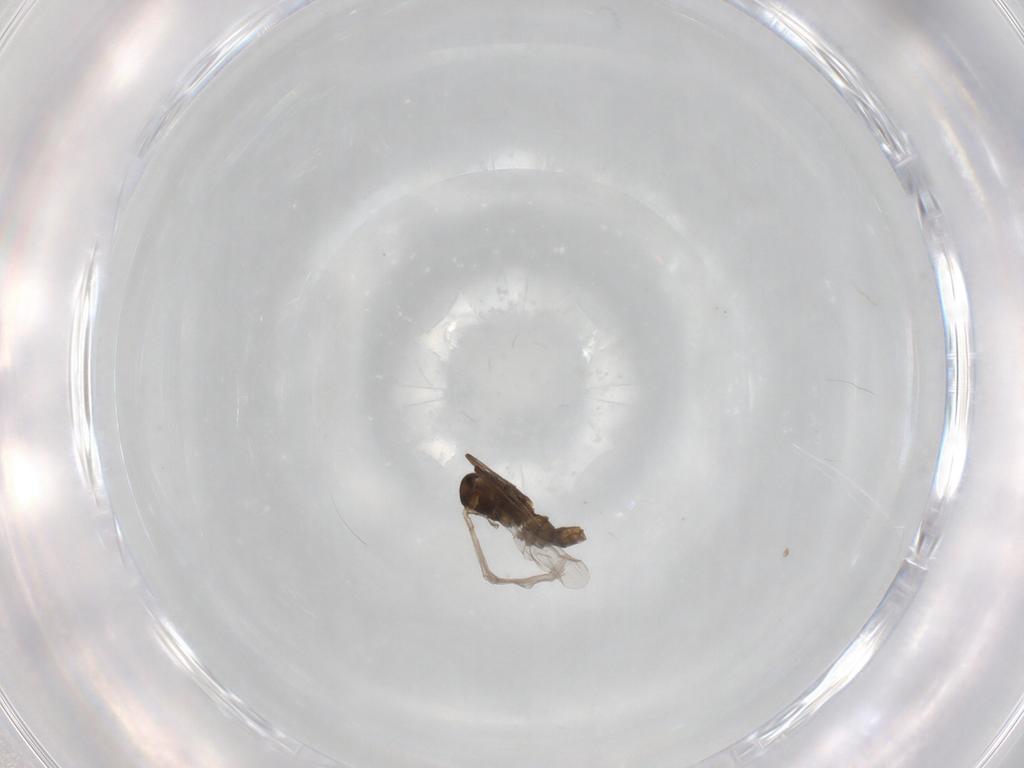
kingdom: Animalia
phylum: Arthropoda
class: Insecta
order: Diptera
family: Chironomidae
